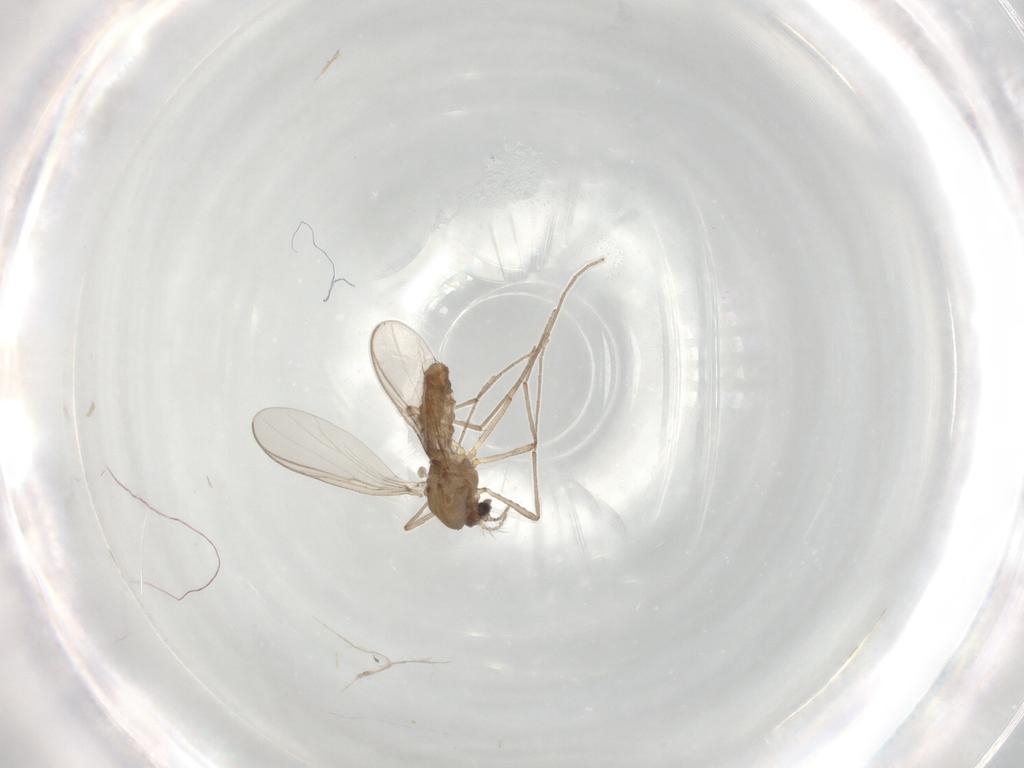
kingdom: Animalia
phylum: Arthropoda
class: Insecta
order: Diptera
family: Chironomidae
